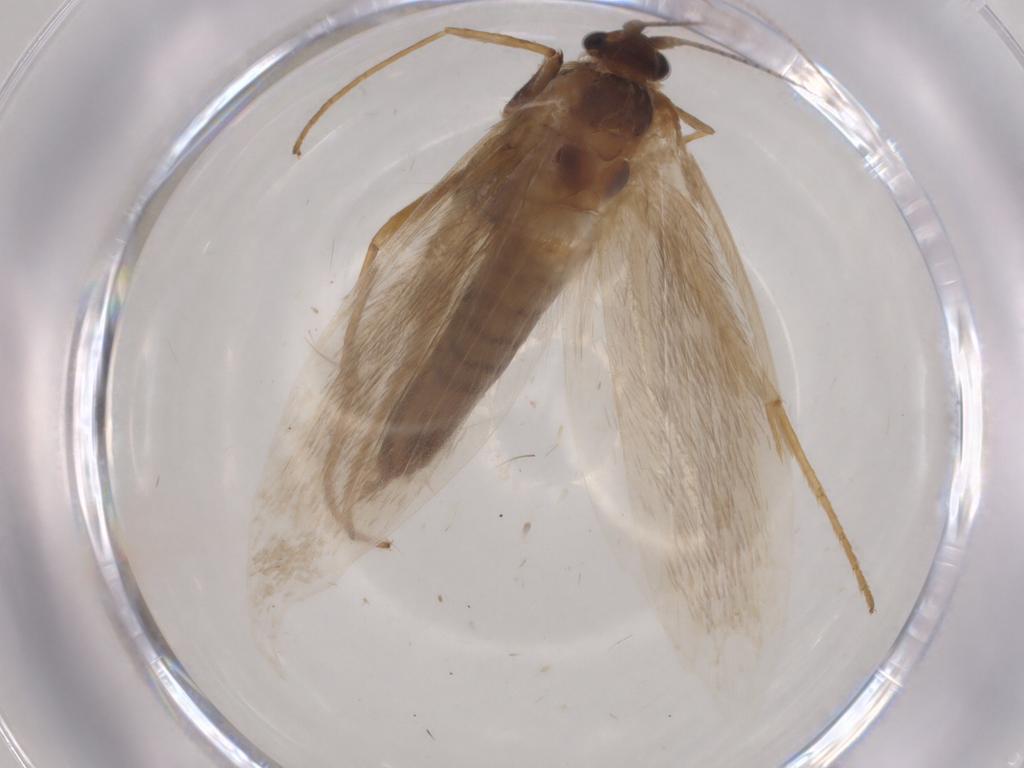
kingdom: Animalia
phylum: Arthropoda
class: Insecta
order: Lepidoptera
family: Adelidae
